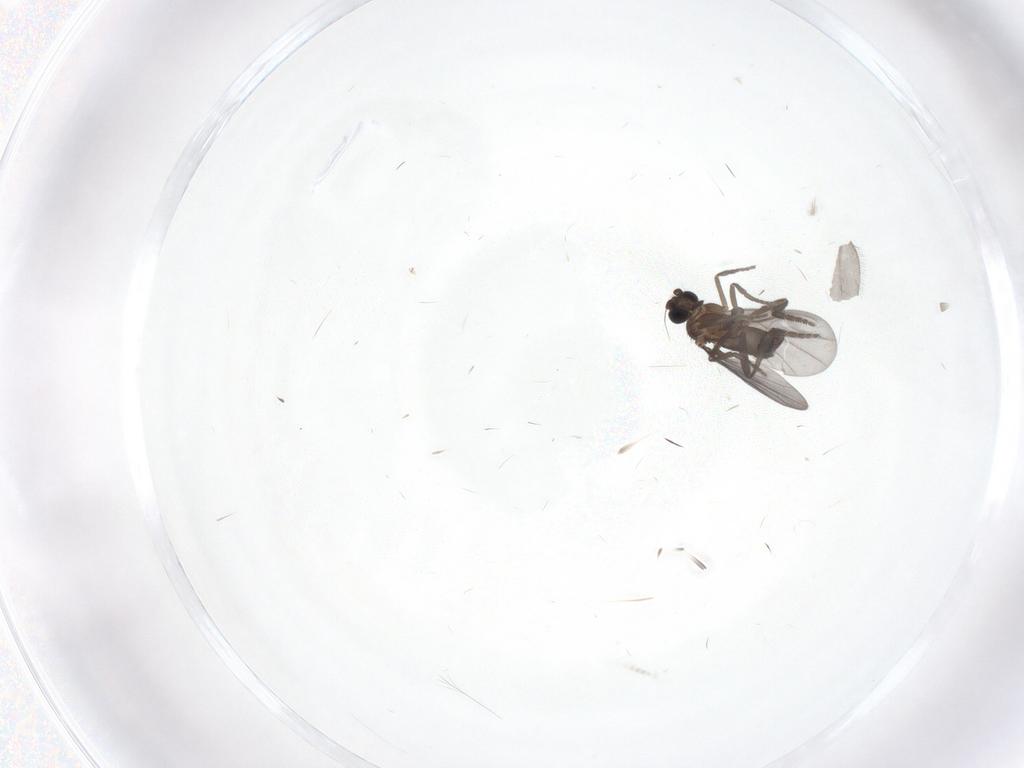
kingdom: Animalia
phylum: Arthropoda
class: Insecta
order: Diptera
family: Phoridae
